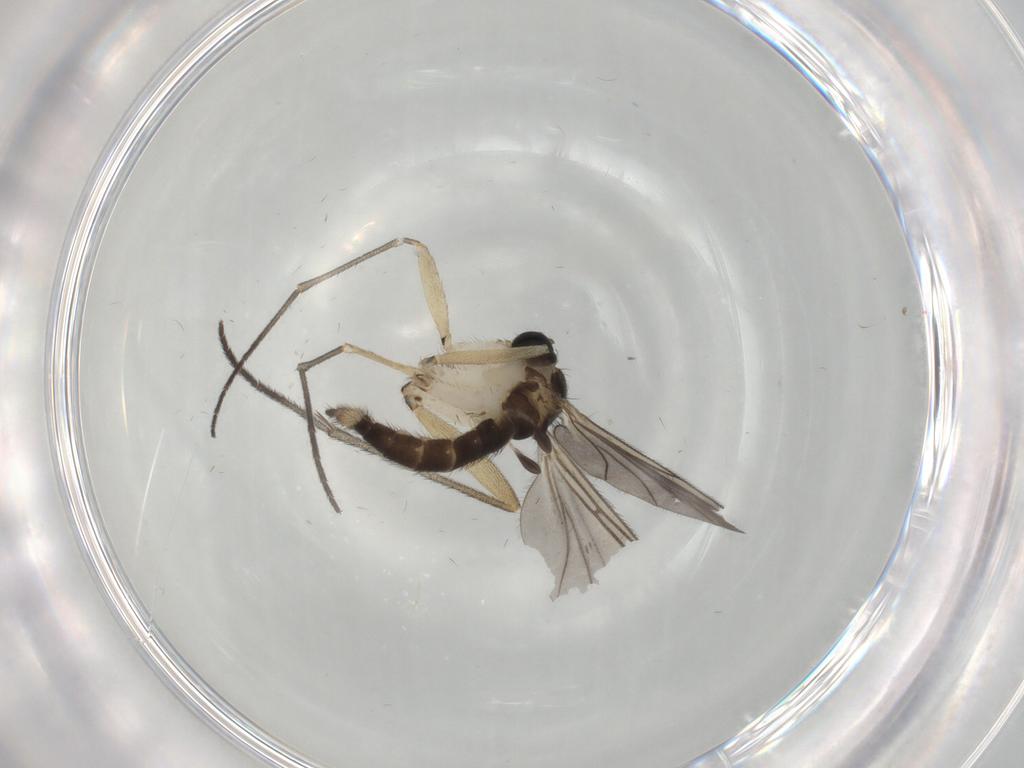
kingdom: Animalia
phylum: Arthropoda
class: Insecta
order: Diptera
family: Sciaridae
